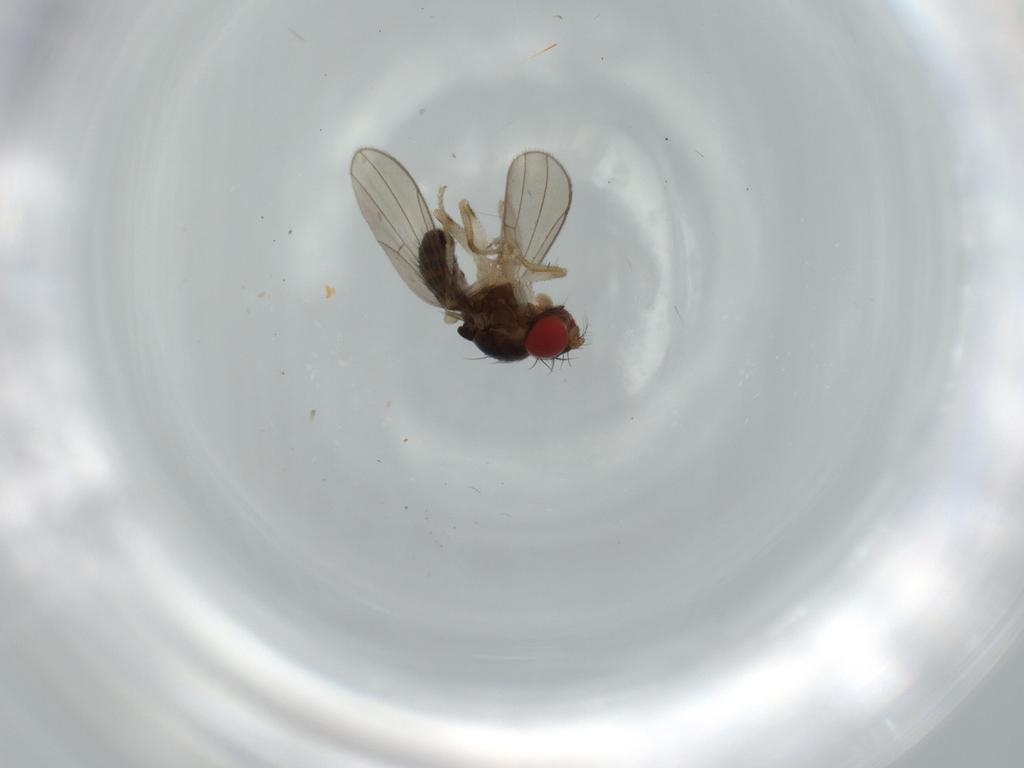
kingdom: Animalia
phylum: Arthropoda
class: Insecta
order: Diptera
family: Drosophilidae
